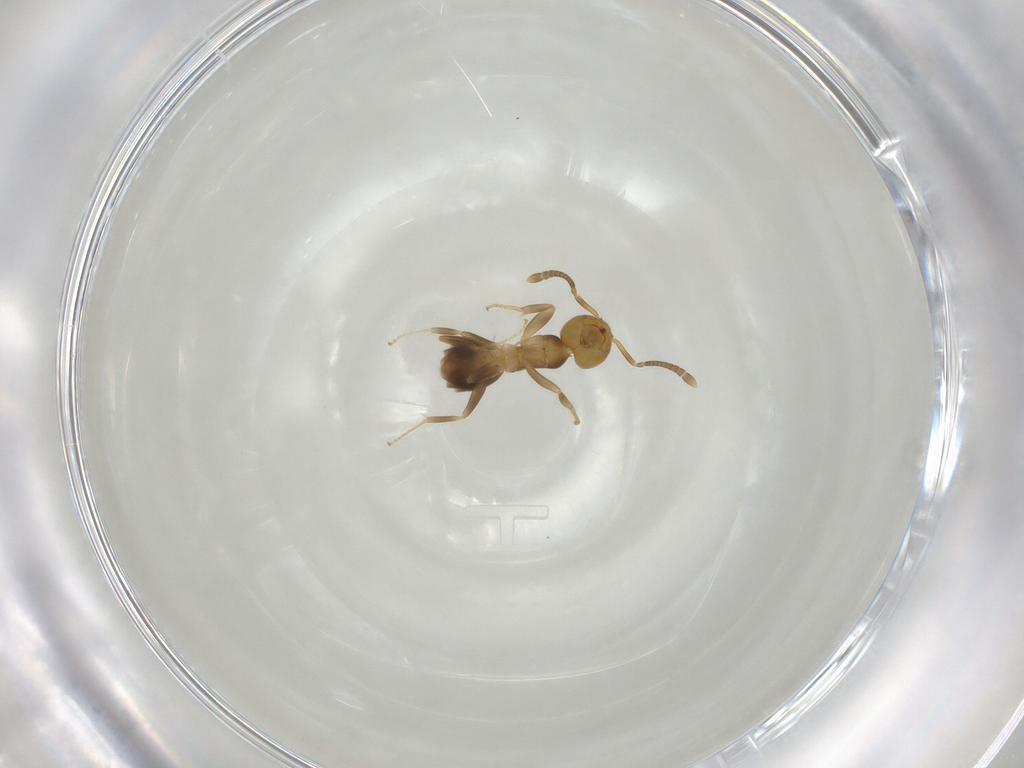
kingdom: Animalia
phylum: Arthropoda
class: Insecta
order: Hymenoptera
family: Formicidae
